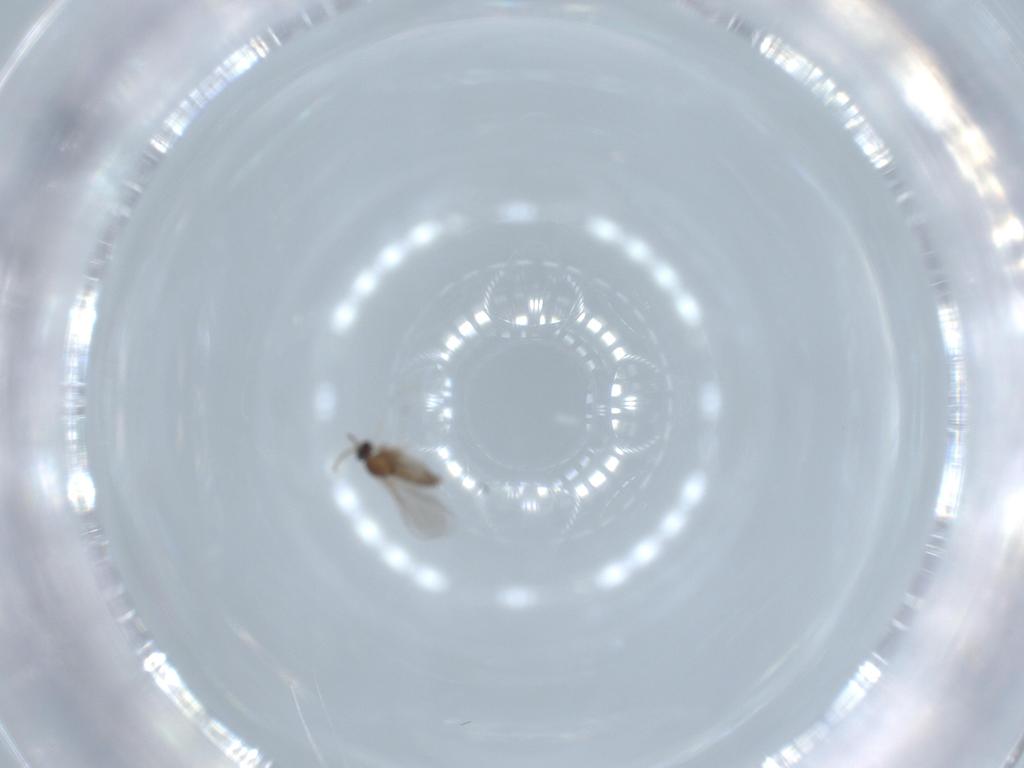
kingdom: Animalia
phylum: Arthropoda
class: Insecta
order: Diptera
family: Cecidomyiidae
